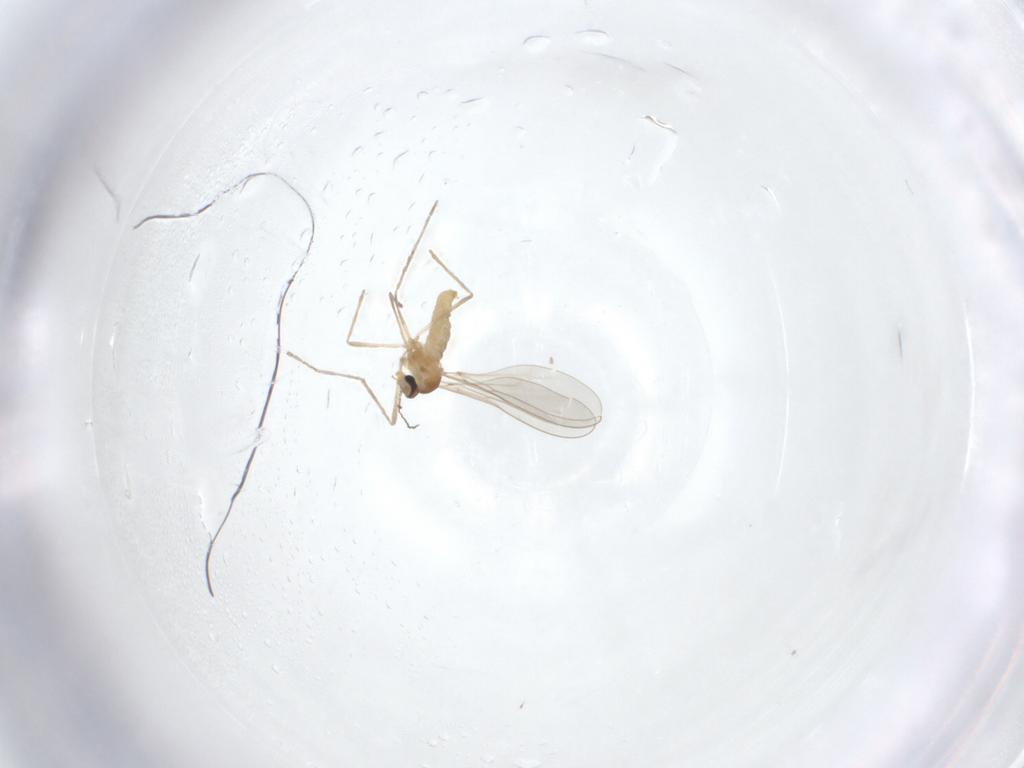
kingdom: Animalia
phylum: Arthropoda
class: Insecta
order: Diptera
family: Cecidomyiidae
